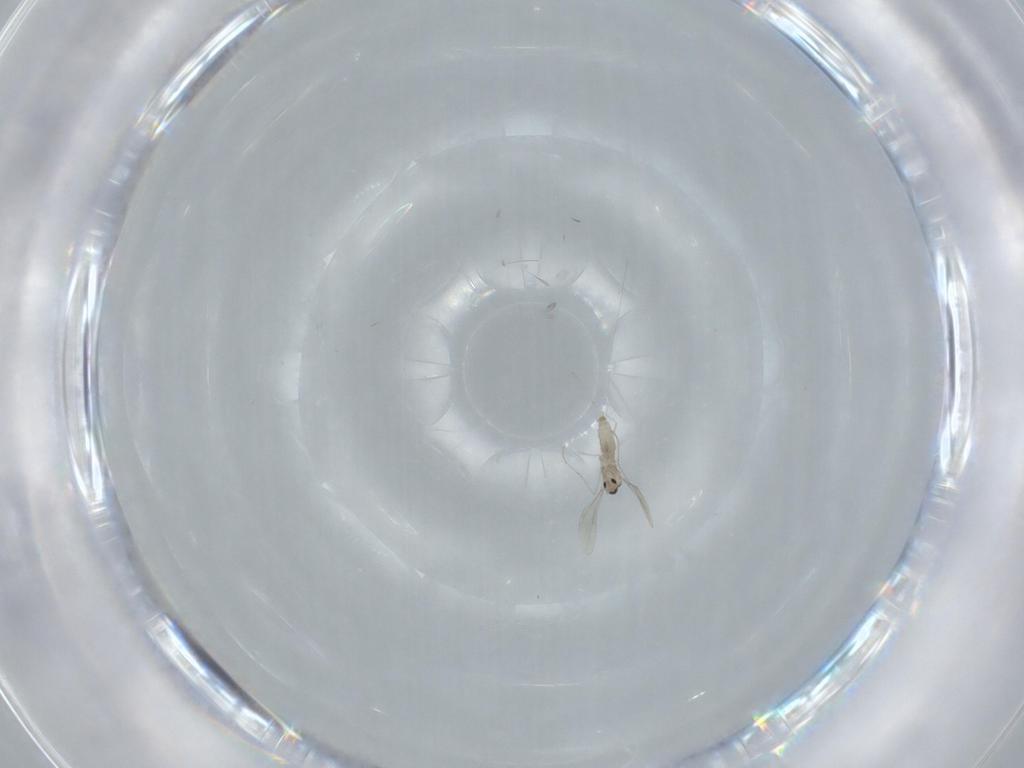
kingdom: Animalia
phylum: Arthropoda
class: Insecta
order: Diptera
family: Cecidomyiidae
